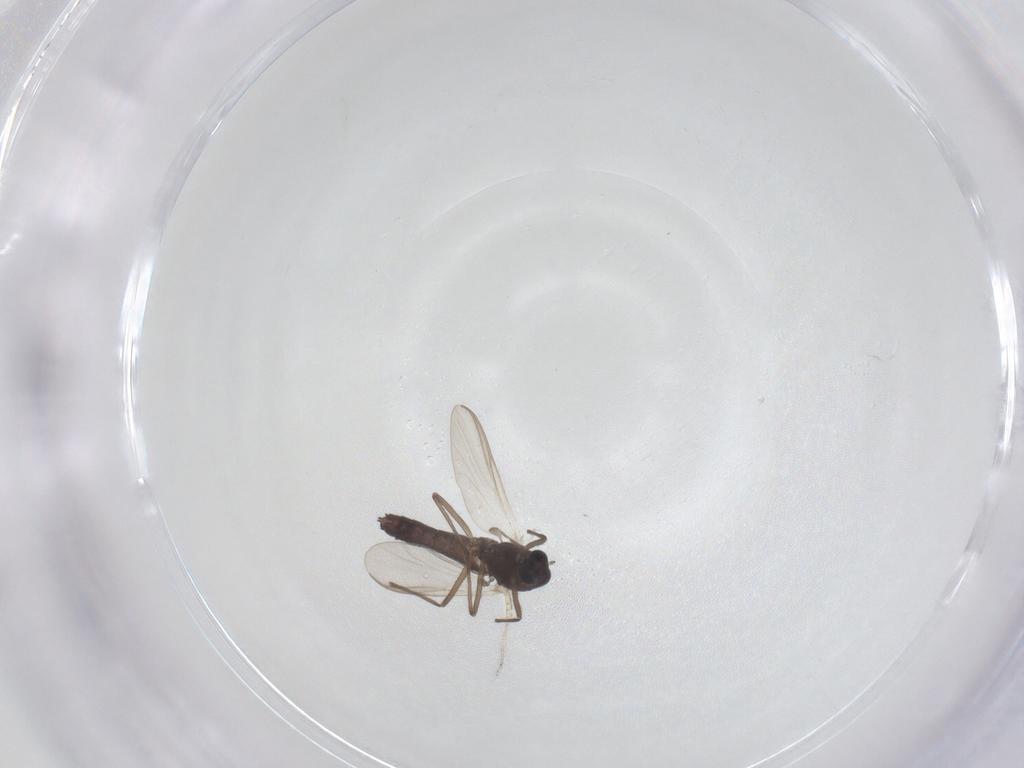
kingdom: Animalia
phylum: Arthropoda
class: Insecta
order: Diptera
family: Chironomidae
